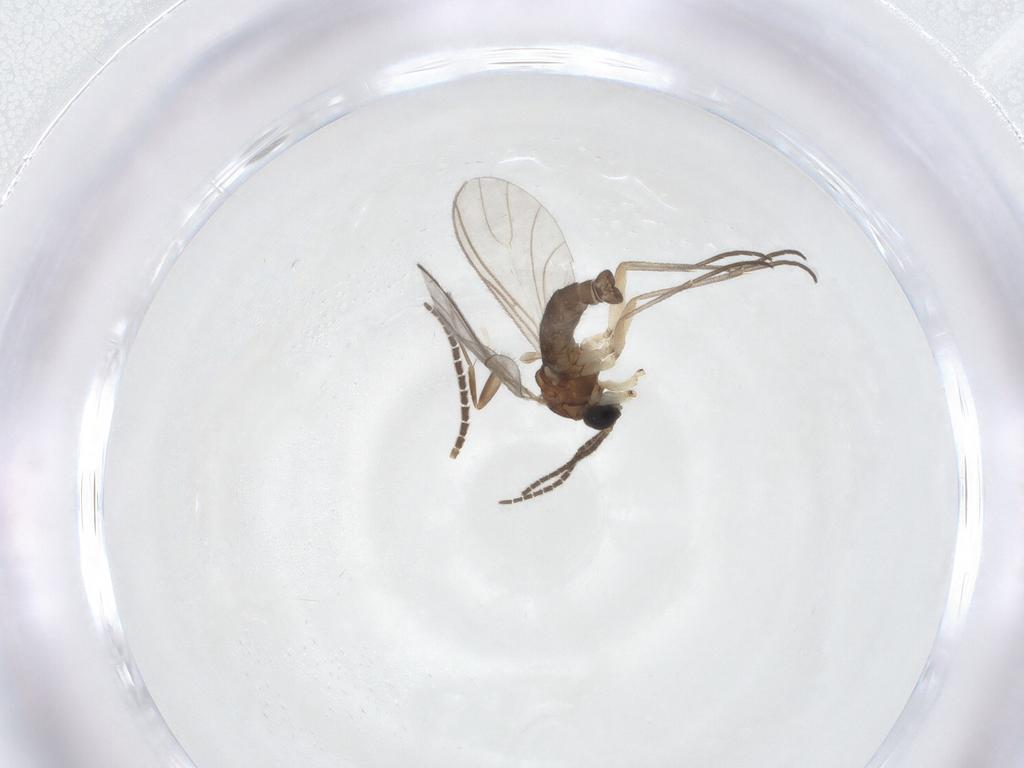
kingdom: Animalia
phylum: Arthropoda
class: Insecta
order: Diptera
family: Sciaridae
